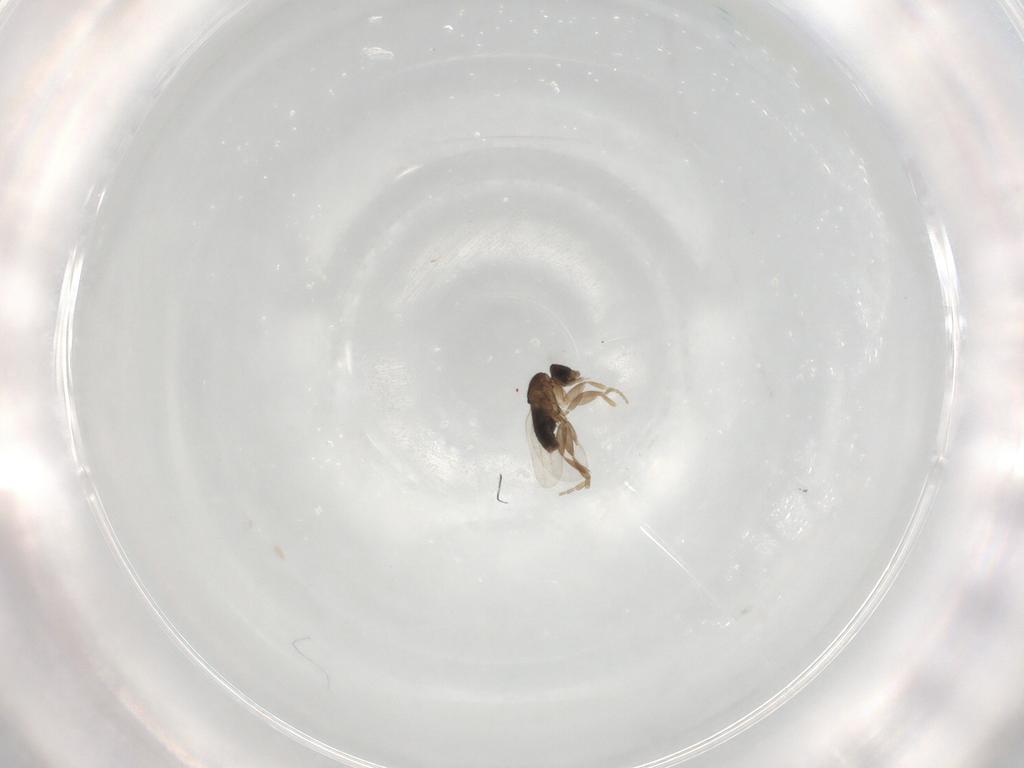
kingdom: Animalia
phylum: Arthropoda
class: Insecta
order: Diptera
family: Phoridae
